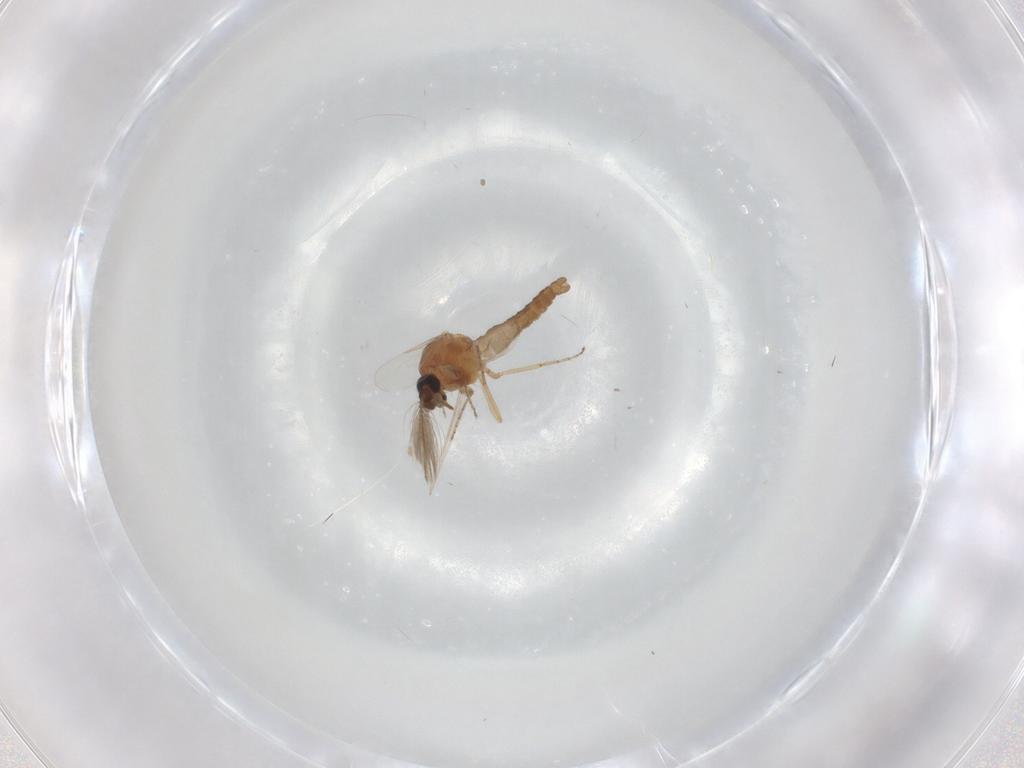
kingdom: Animalia
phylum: Arthropoda
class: Insecta
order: Diptera
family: Ceratopogonidae
